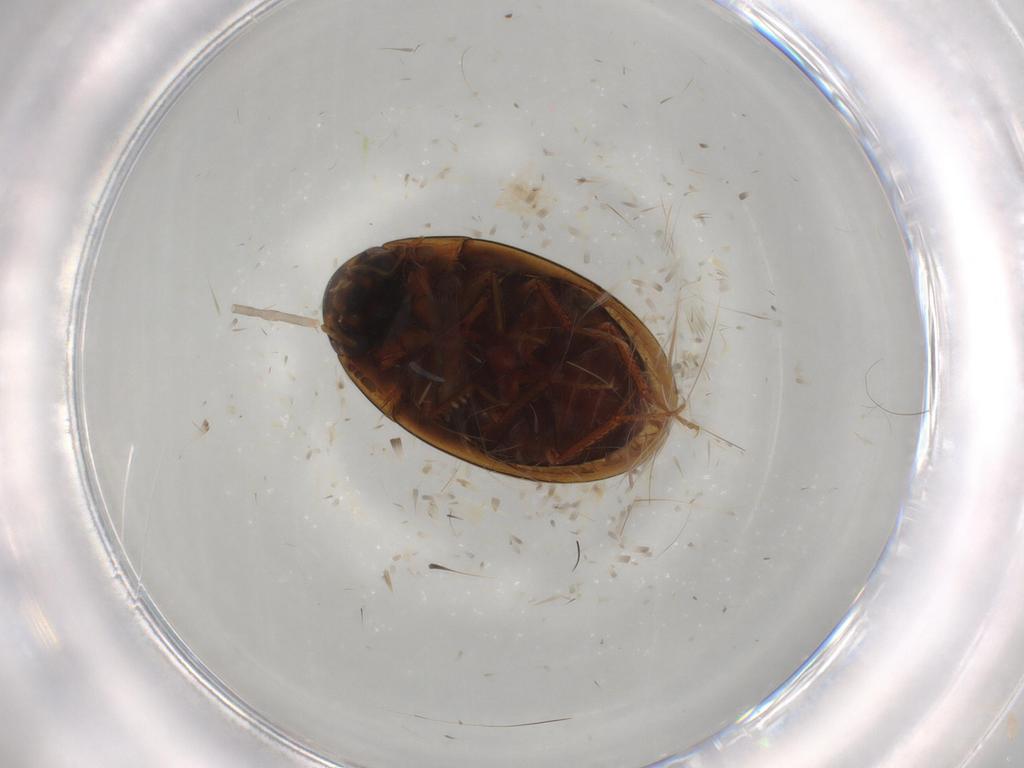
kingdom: Animalia
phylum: Arthropoda
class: Insecta
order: Coleoptera
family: Hydrophilidae
